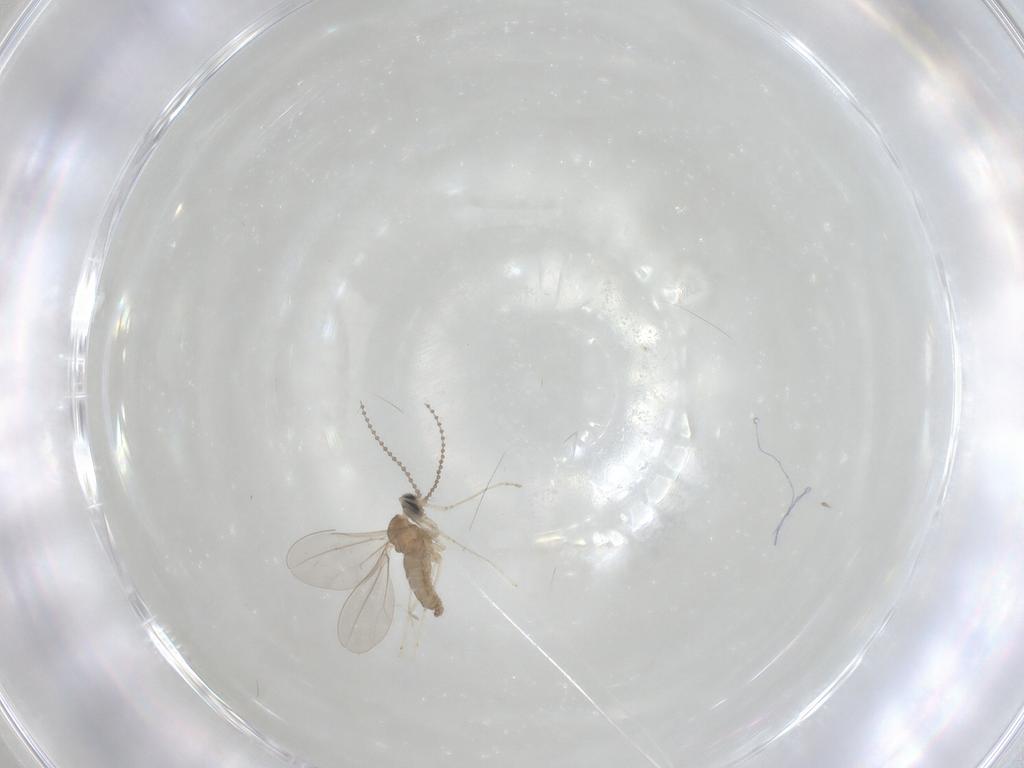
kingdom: Animalia
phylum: Arthropoda
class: Insecta
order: Diptera
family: Cecidomyiidae
